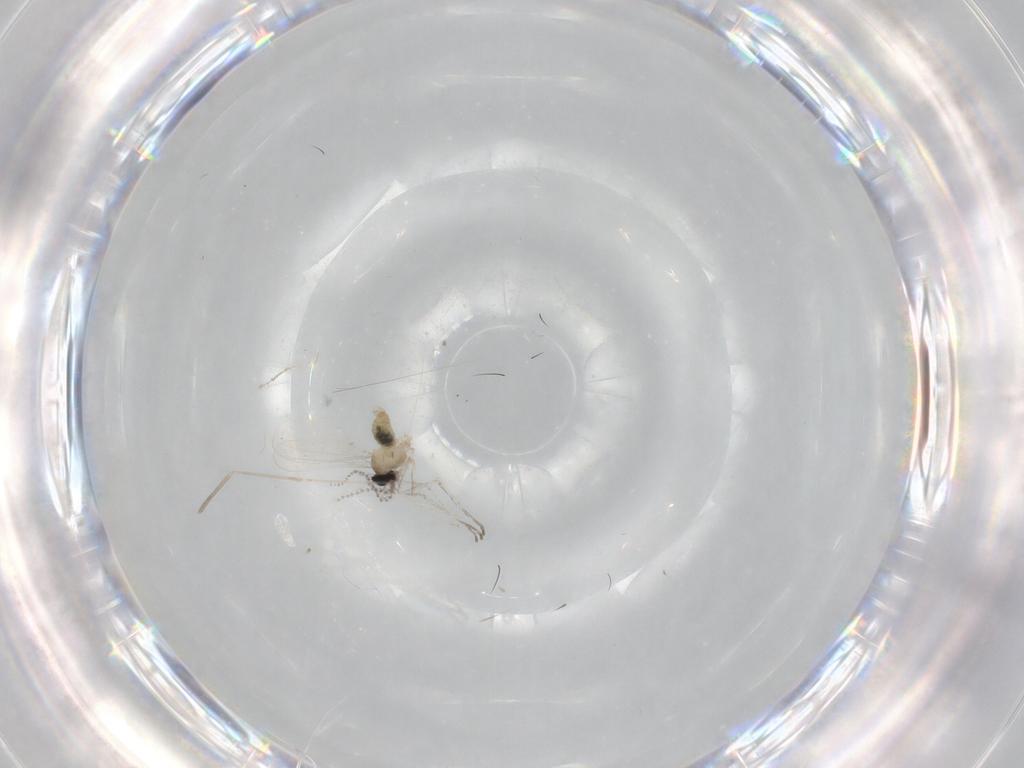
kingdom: Animalia
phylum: Arthropoda
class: Insecta
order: Diptera
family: Cecidomyiidae
